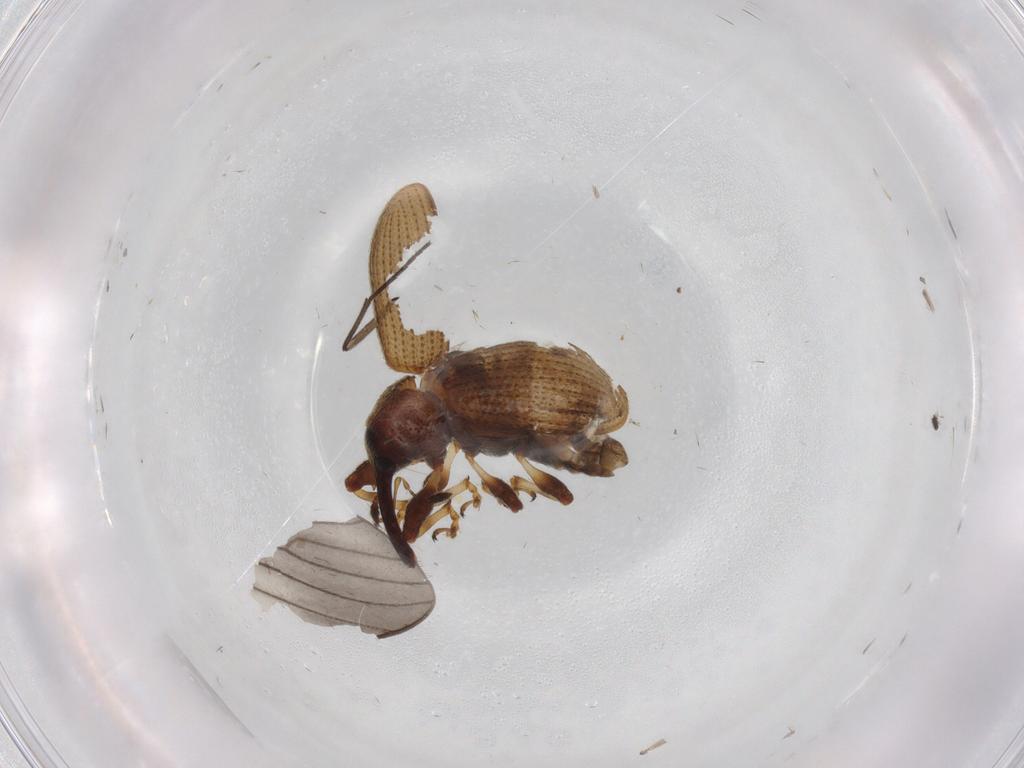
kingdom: Animalia
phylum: Arthropoda
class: Insecta
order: Coleoptera
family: Curculionidae
